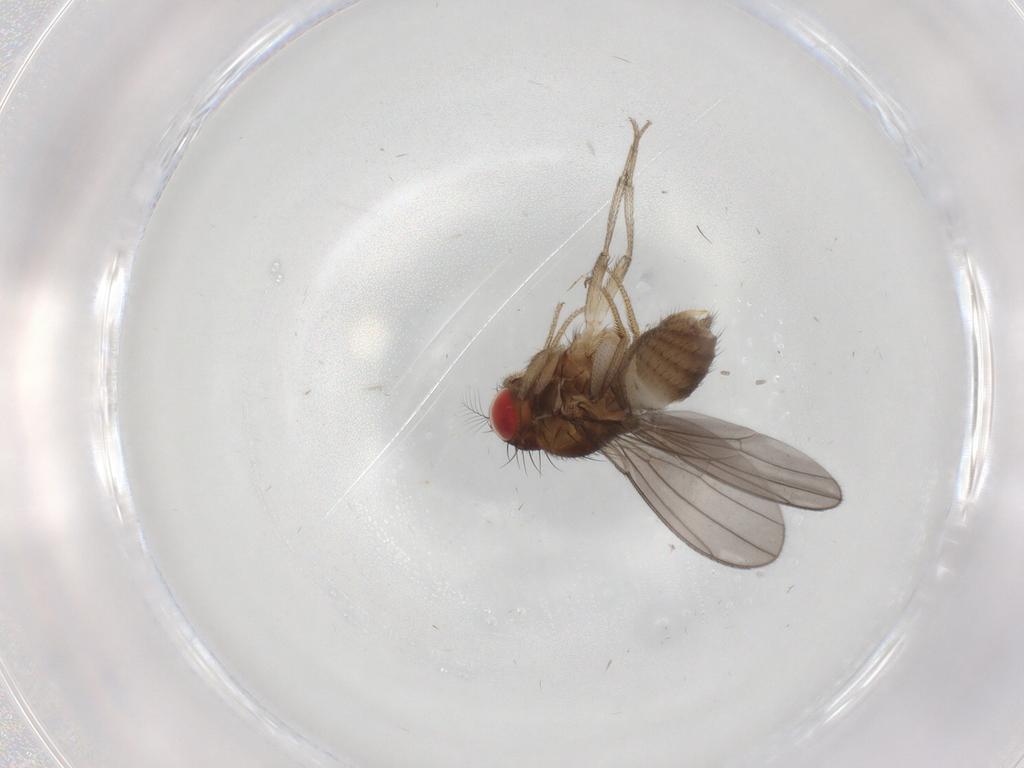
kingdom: Animalia
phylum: Arthropoda
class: Insecta
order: Diptera
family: Drosophilidae
